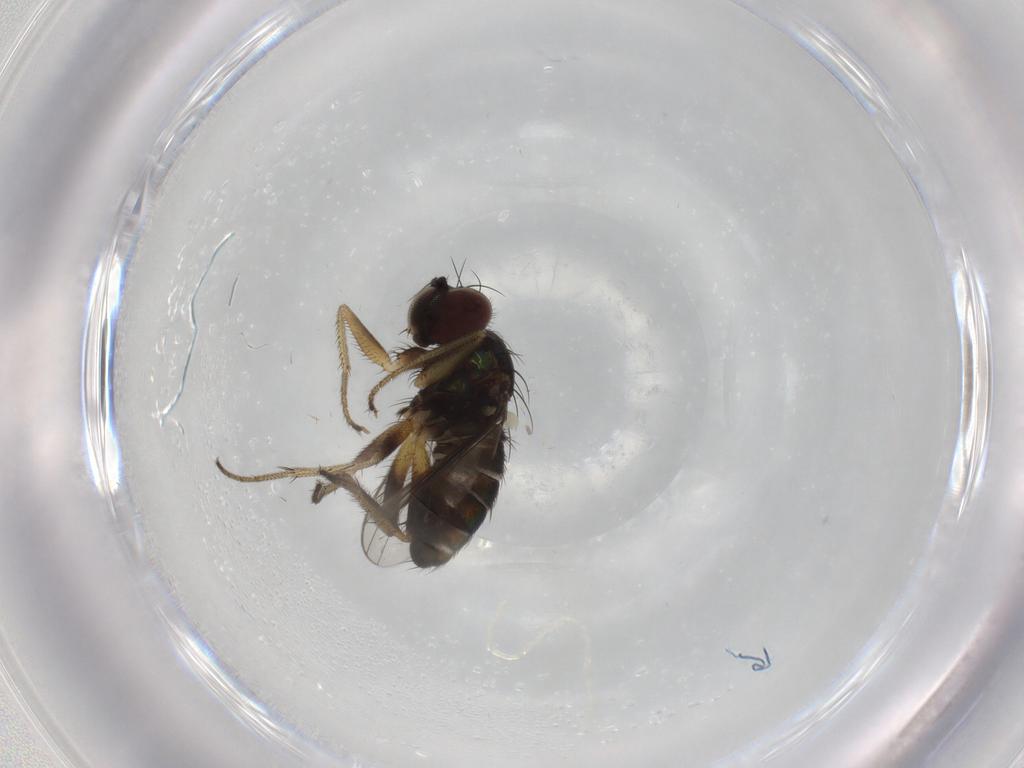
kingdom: Animalia
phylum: Arthropoda
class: Insecta
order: Diptera
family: Dolichopodidae
